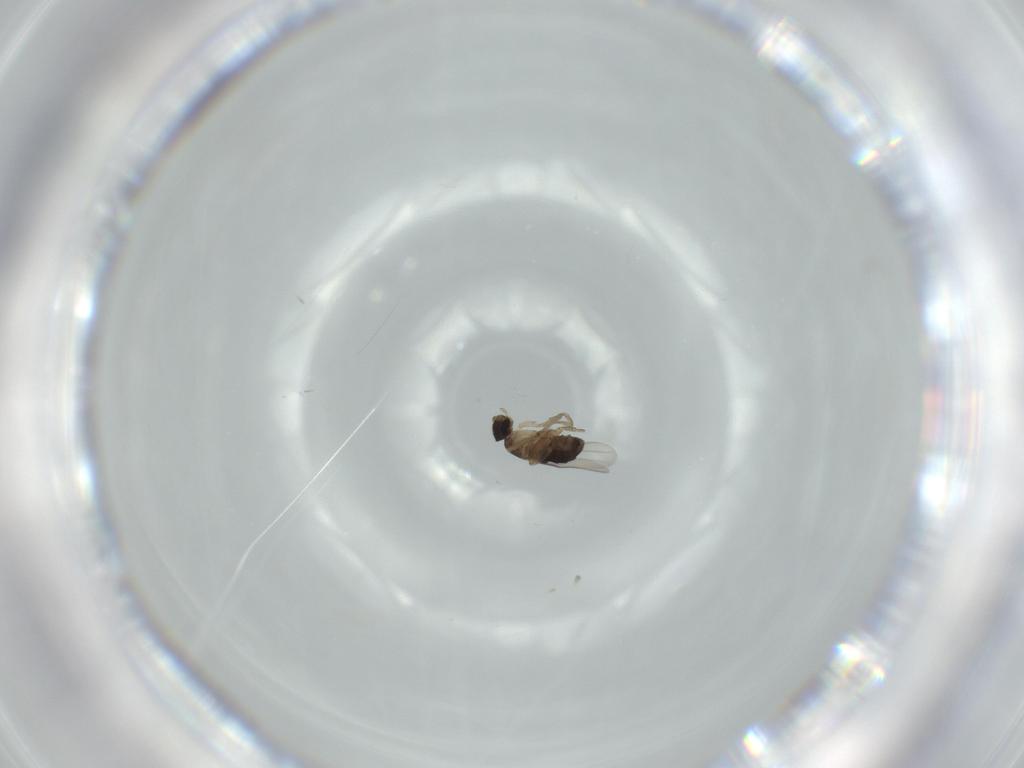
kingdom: Animalia
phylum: Arthropoda
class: Insecta
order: Diptera
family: Phoridae
